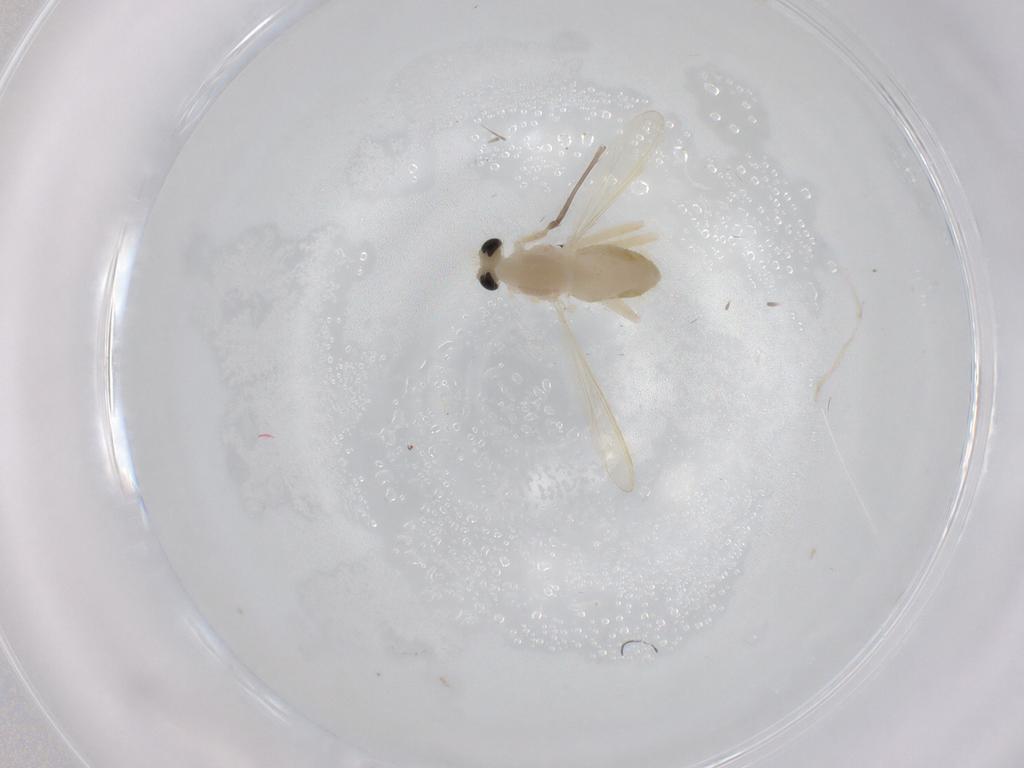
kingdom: Animalia
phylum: Arthropoda
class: Insecta
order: Diptera
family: Chironomidae
